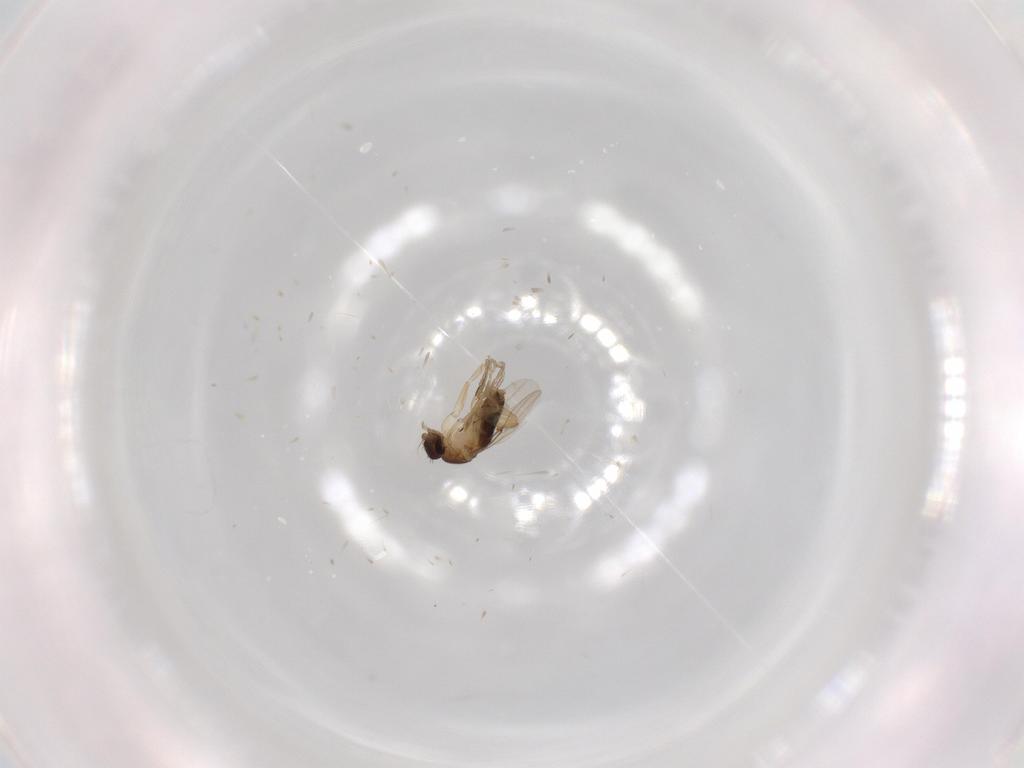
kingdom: Animalia
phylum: Arthropoda
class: Insecta
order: Diptera
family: Phoridae
